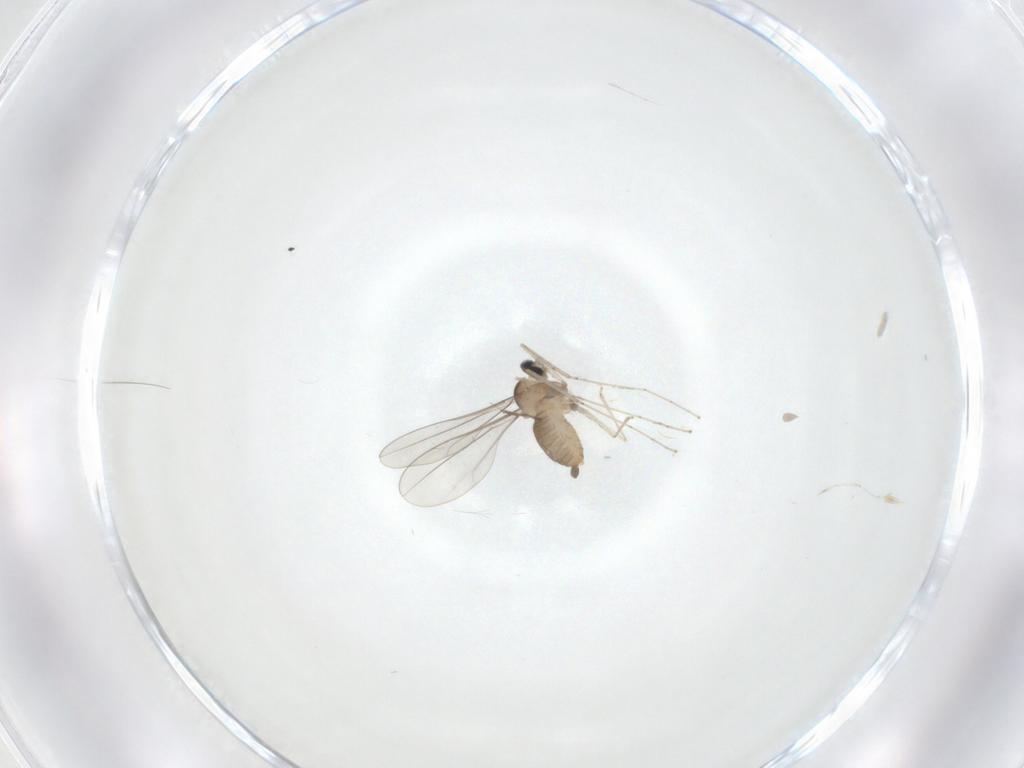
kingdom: Animalia
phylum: Arthropoda
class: Insecta
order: Diptera
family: Cecidomyiidae
